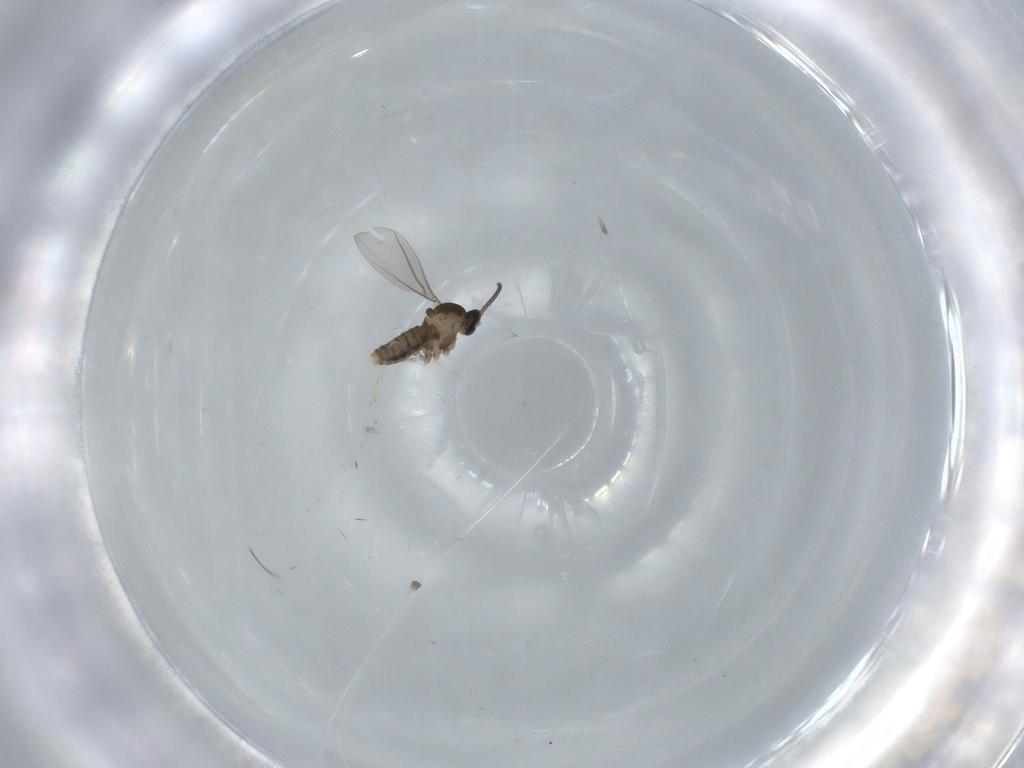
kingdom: Animalia
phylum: Arthropoda
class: Insecta
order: Diptera
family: Cecidomyiidae
